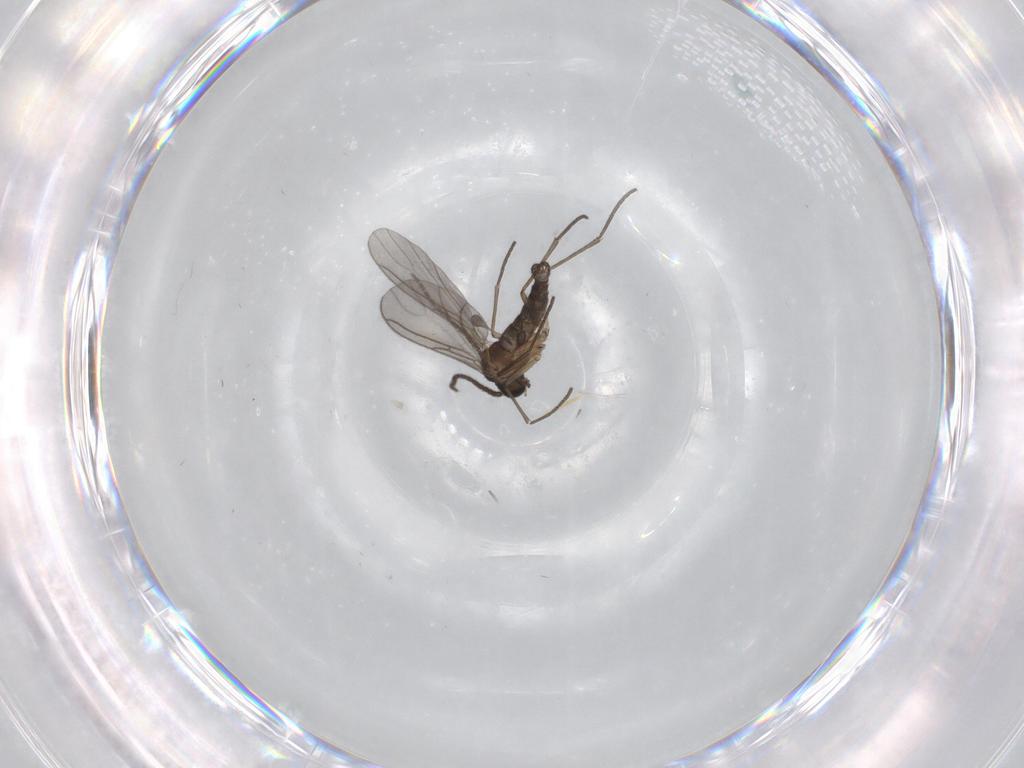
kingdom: Animalia
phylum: Arthropoda
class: Insecta
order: Diptera
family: Sciaridae
